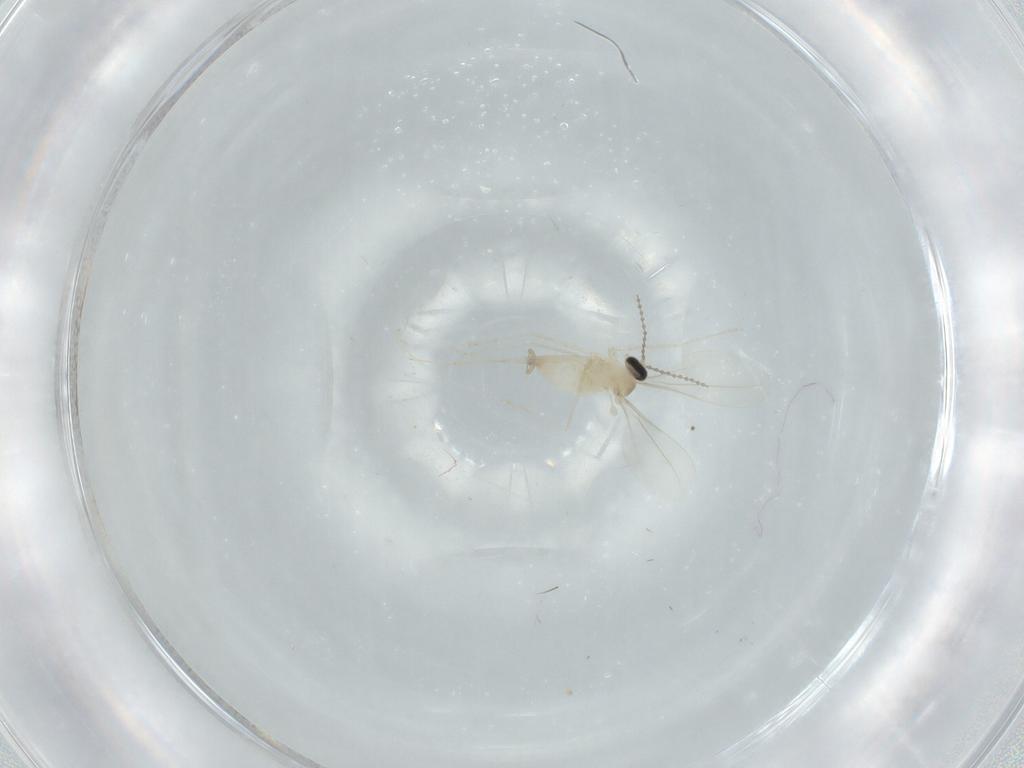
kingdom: Animalia
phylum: Arthropoda
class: Insecta
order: Diptera
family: Cecidomyiidae
